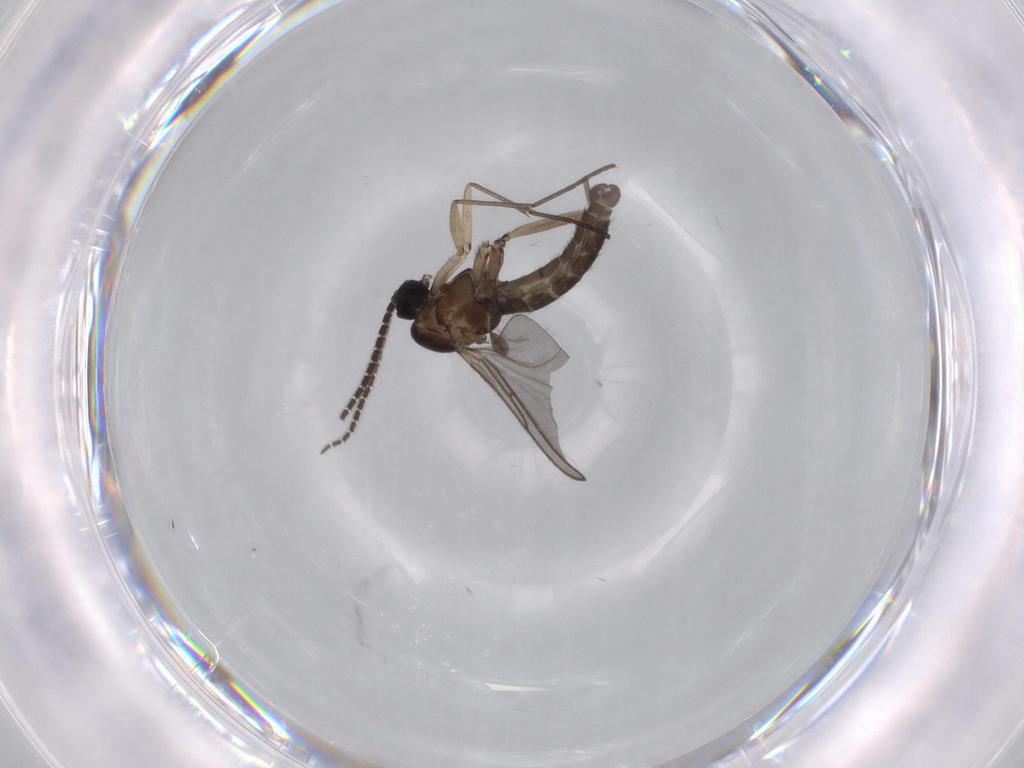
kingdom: Animalia
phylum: Arthropoda
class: Insecta
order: Diptera
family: Sciaridae
